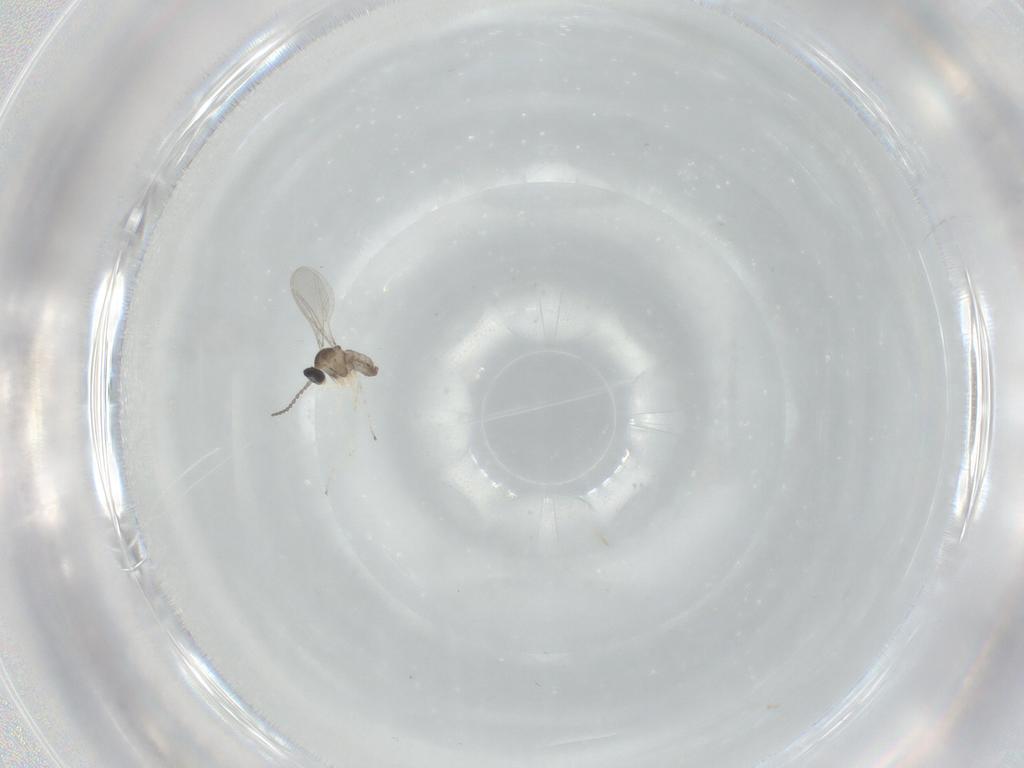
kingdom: Animalia
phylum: Arthropoda
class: Insecta
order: Diptera
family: Cecidomyiidae
